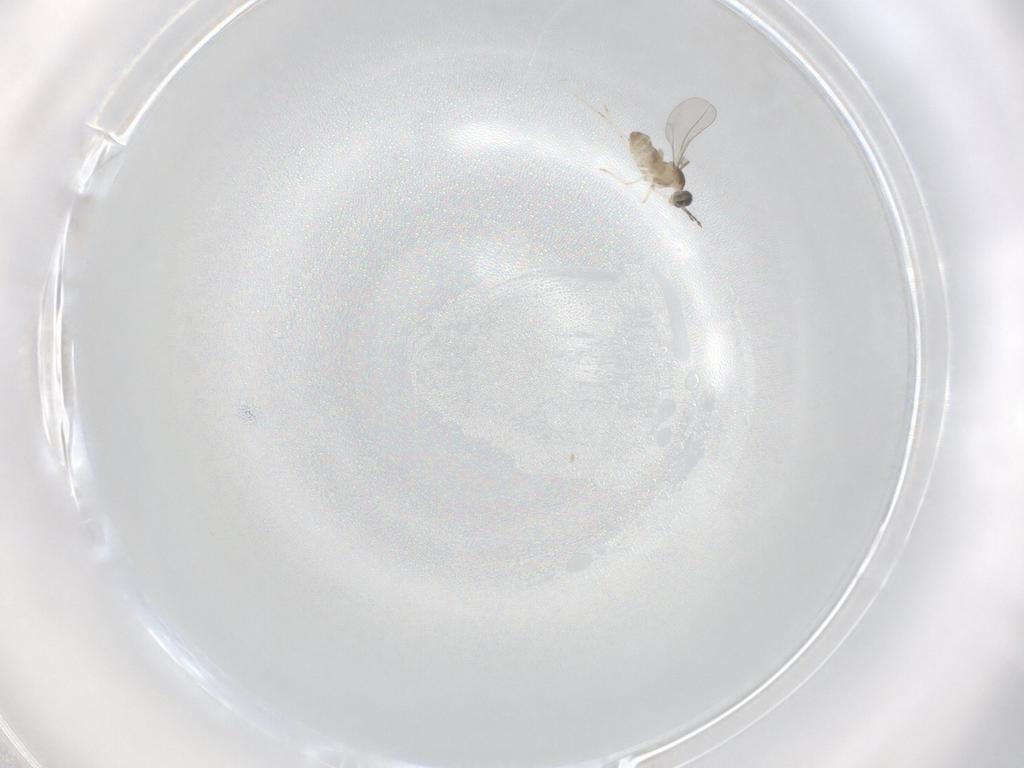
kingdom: Animalia
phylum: Arthropoda
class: Insecta
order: Diptera
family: Cecidomyiidae
